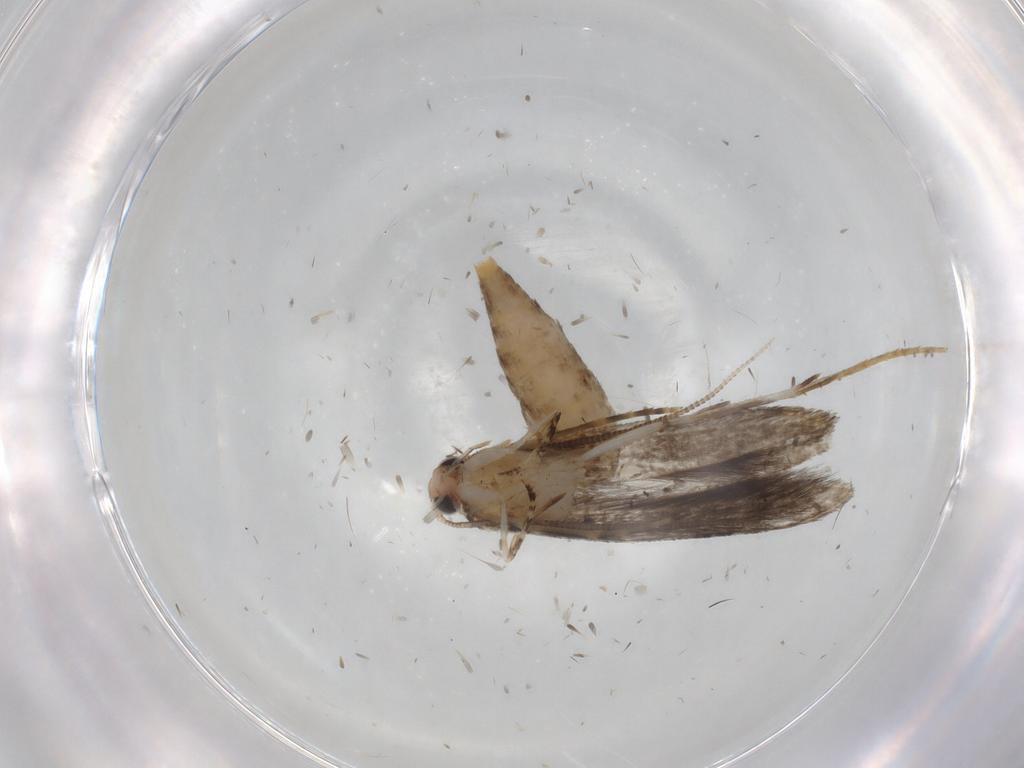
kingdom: Animalia
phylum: Arthropoda
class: Insecta
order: Lepidoptera
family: Tineidae
